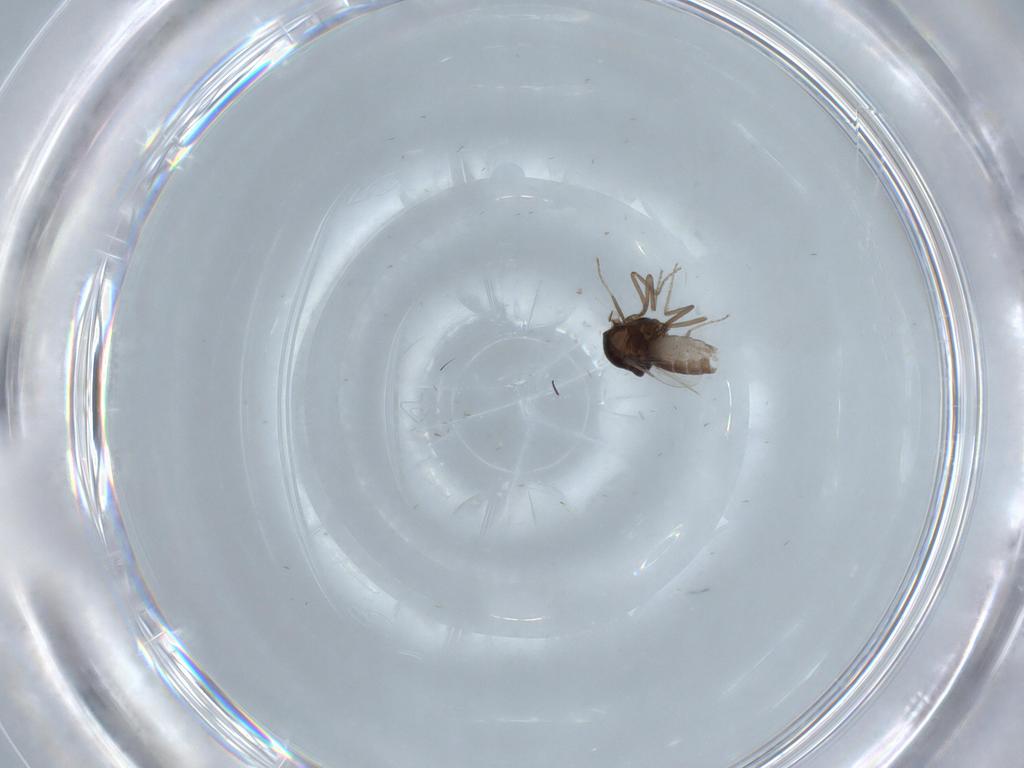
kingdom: Animalia
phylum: Arthropoda
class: Insecta
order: Diptera
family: Ceratopogonidae
